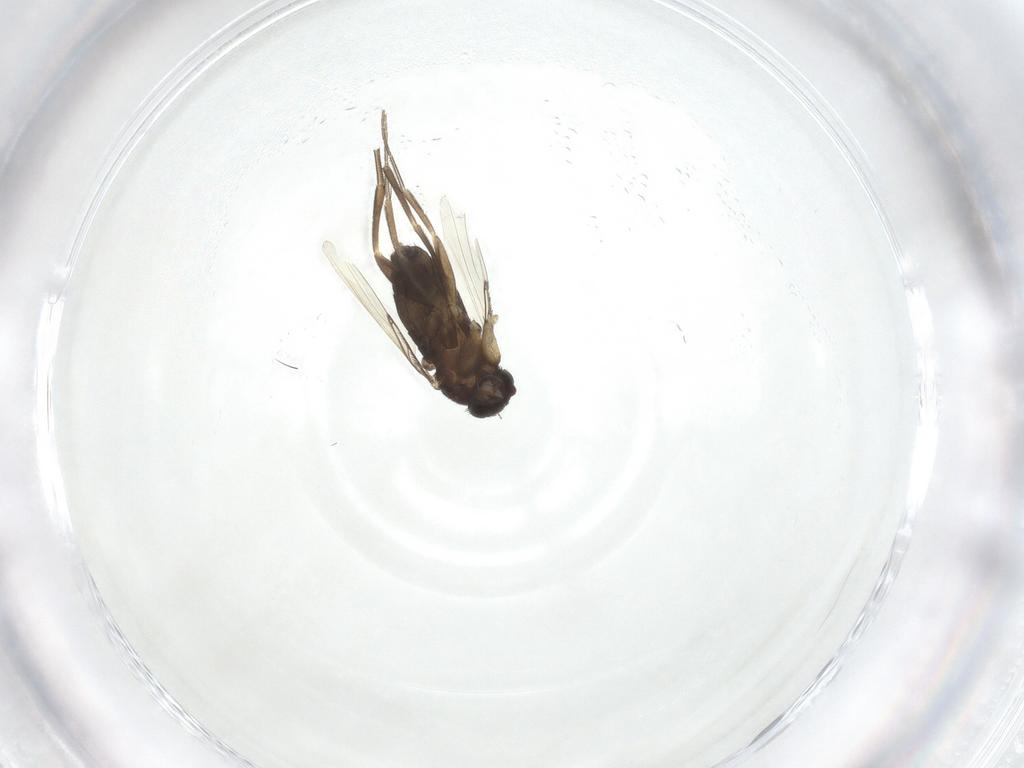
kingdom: Animalia
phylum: Arthropoda
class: Insecta
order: Diptera
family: Phoridae
